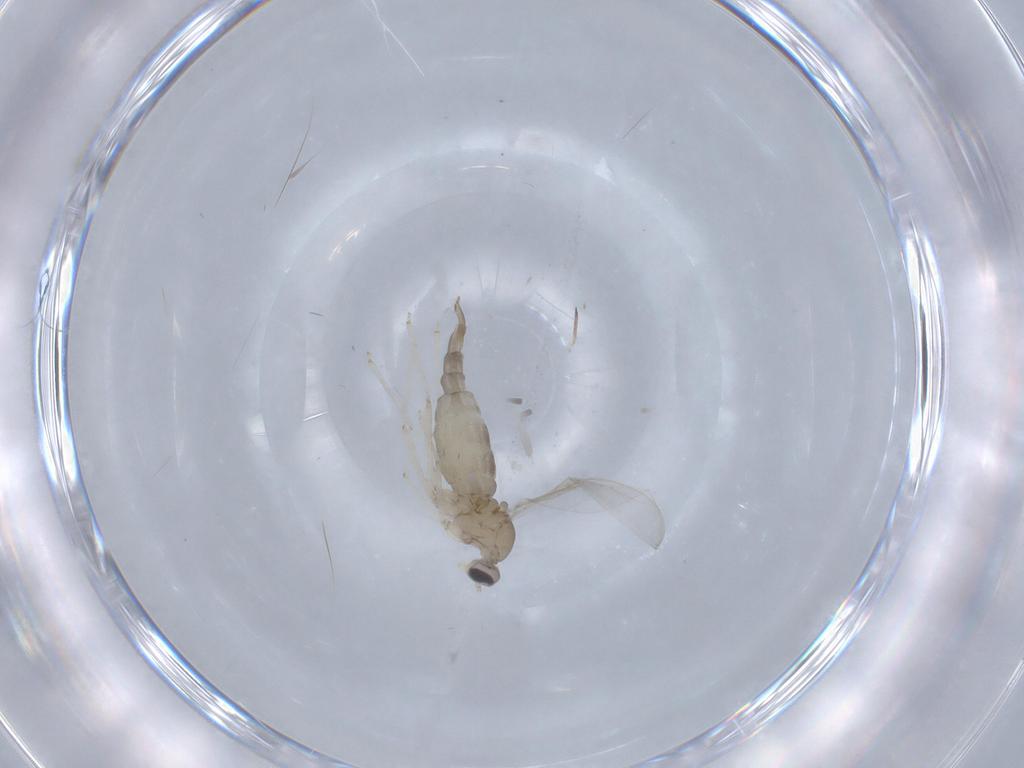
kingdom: Animalia
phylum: Arthropoda
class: Insecta
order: Diptera
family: Cecidomyiidae
